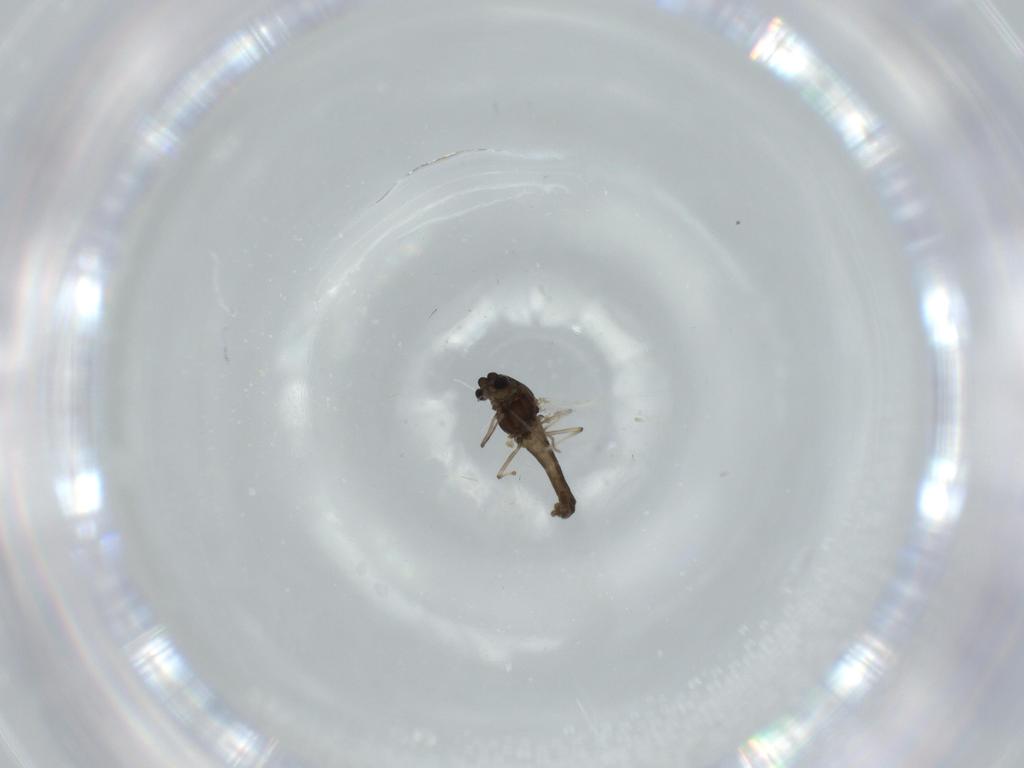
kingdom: Animalia
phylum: Arthropoda
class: Insecta
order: Diptera
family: Chironomidae
